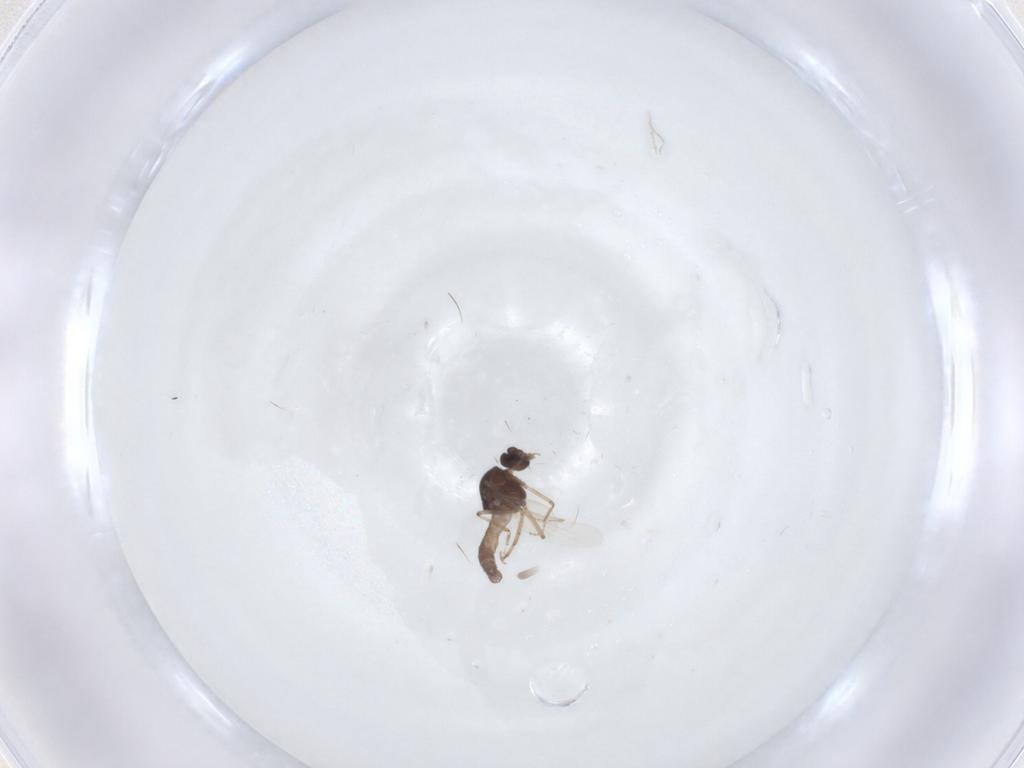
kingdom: Animalia
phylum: Arthropoda
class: Insecta
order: Diptera
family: Ceratopogonidae
